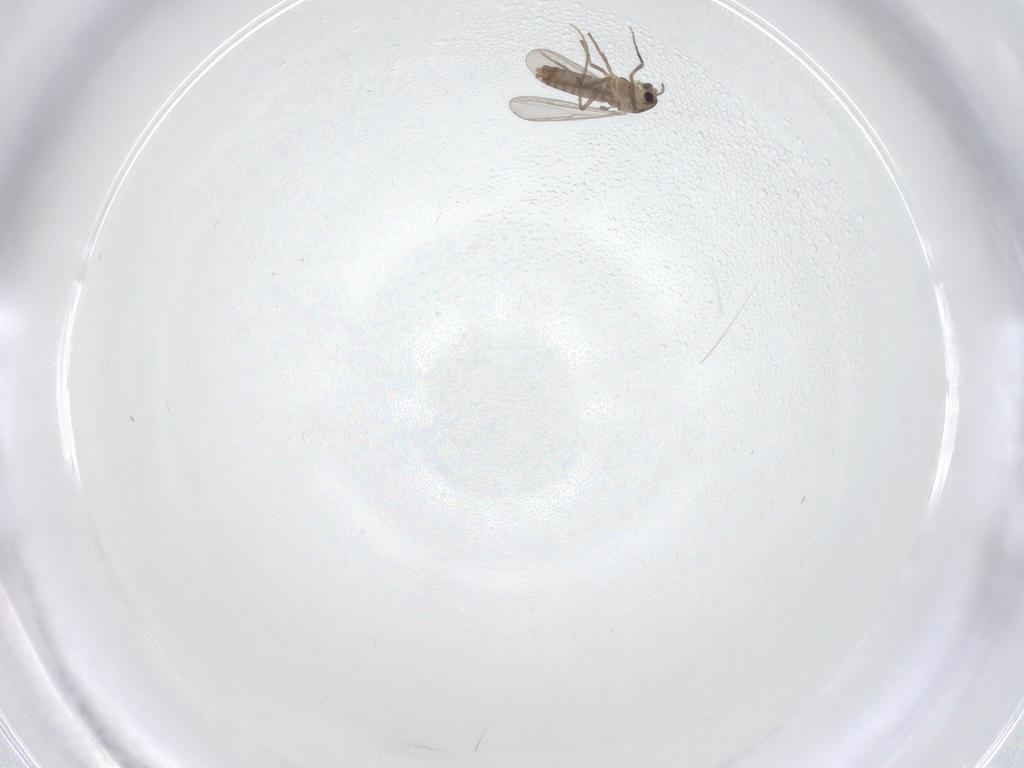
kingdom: Animalia
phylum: Arthropoda
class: Insecta
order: Diptera
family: Chironomidae
